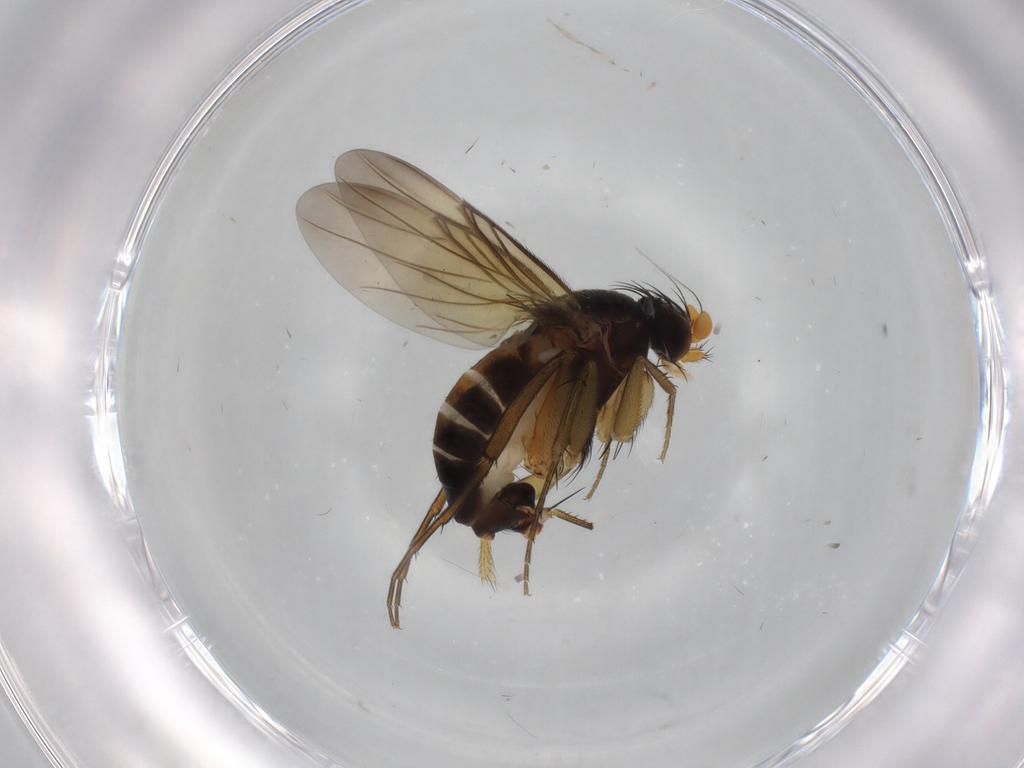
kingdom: Animalia
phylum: Arthropoda
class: Insecta
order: Diptera
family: Phoridae
